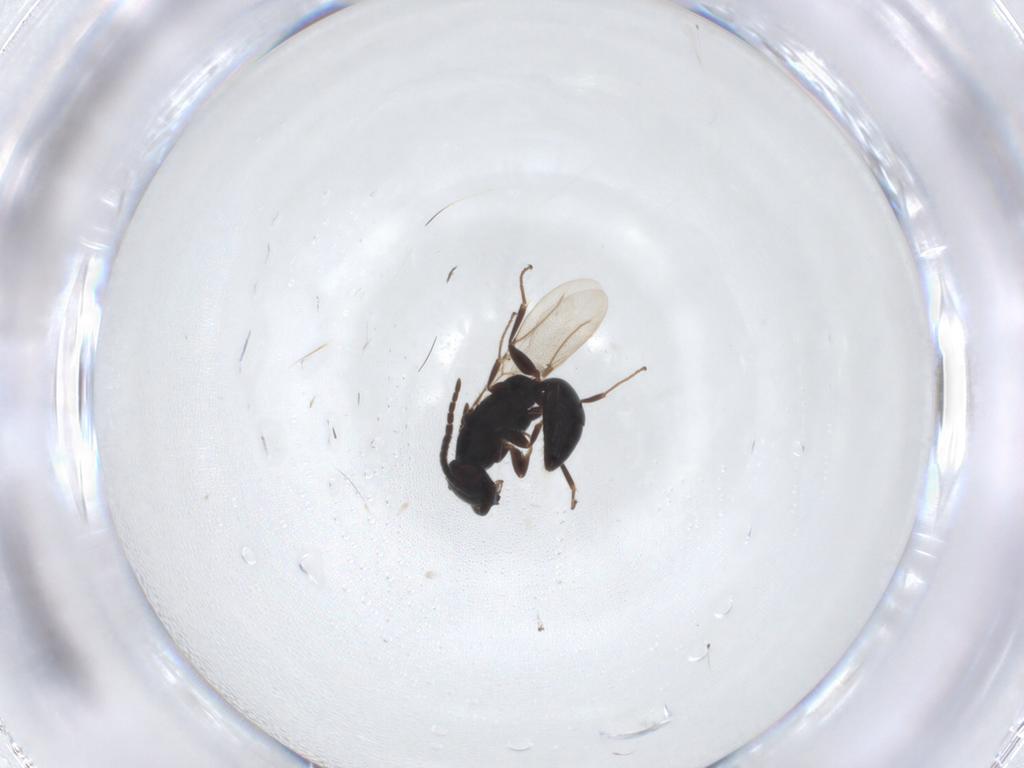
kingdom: Animalia
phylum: Arthropoda
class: Insecta
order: Hymenoptera
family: Bethylidae
